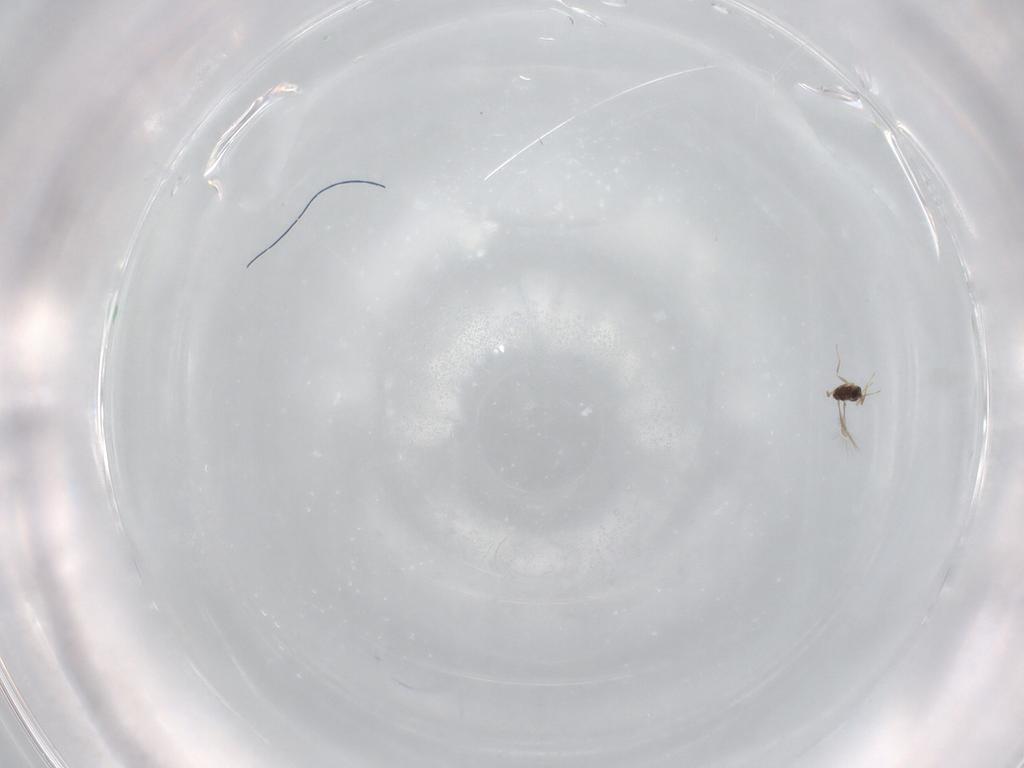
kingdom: Animalia
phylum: Arthropoda
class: Insecta
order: Hymenoptera
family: Mymaridae
